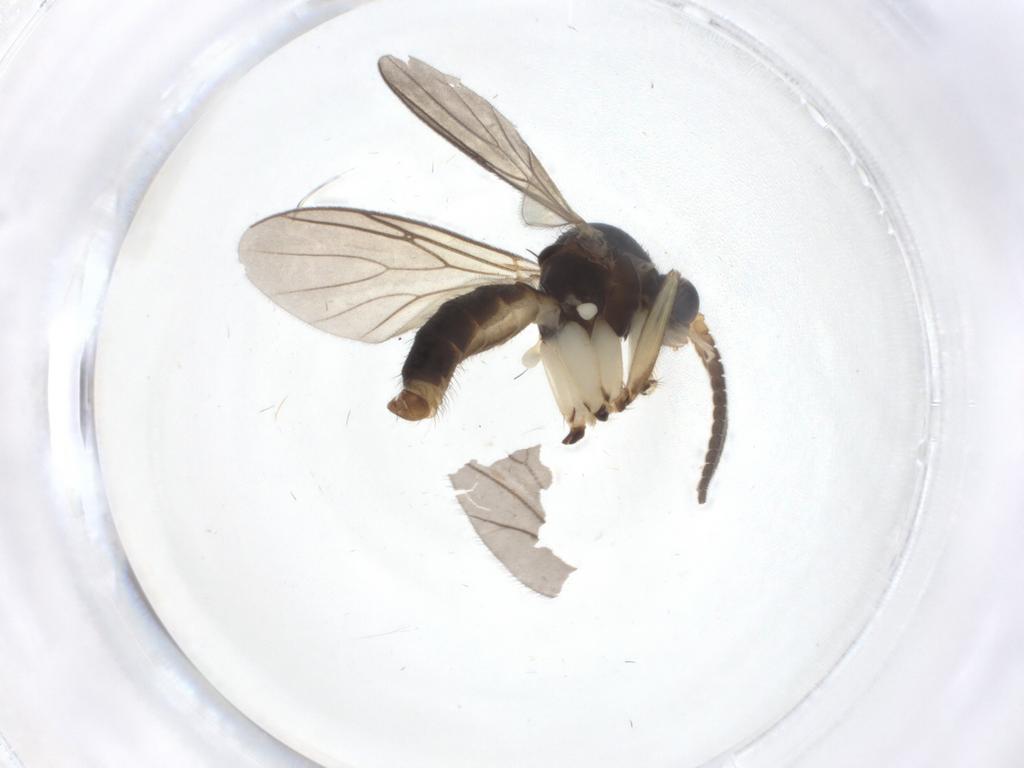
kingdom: Animalia
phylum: Arthropoda
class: Insecta
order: Diptera
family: Mycetophilidae
